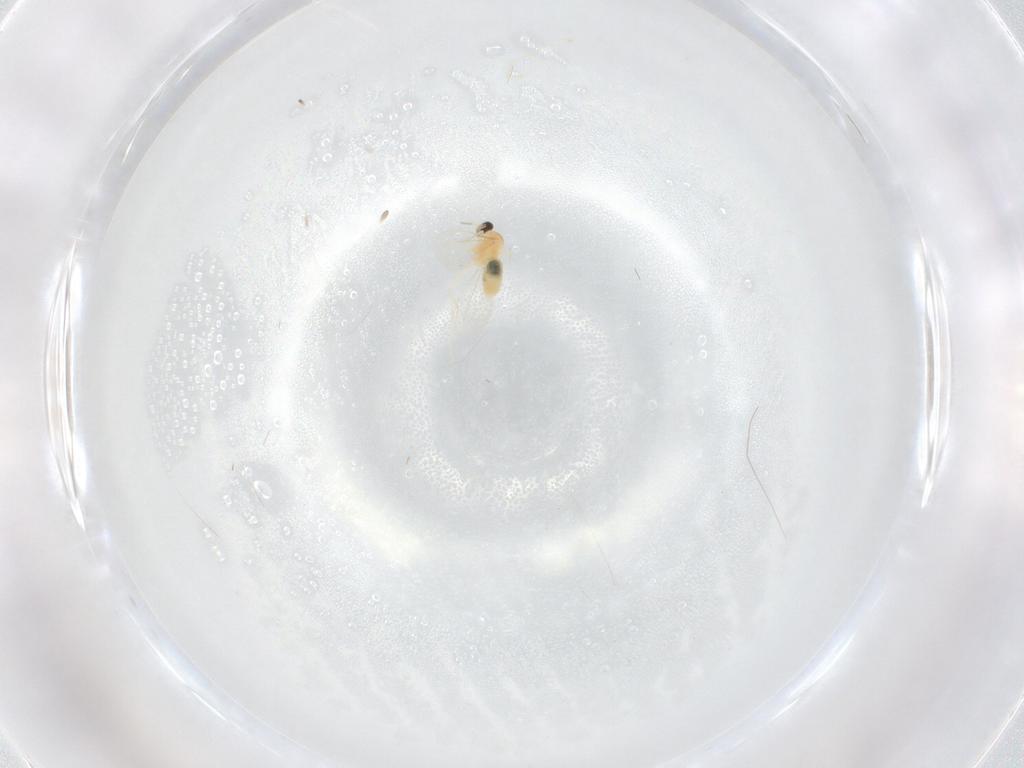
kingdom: Animalia
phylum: Arthropoda
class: Insecta
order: Diptera
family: Cecidomyiidae
